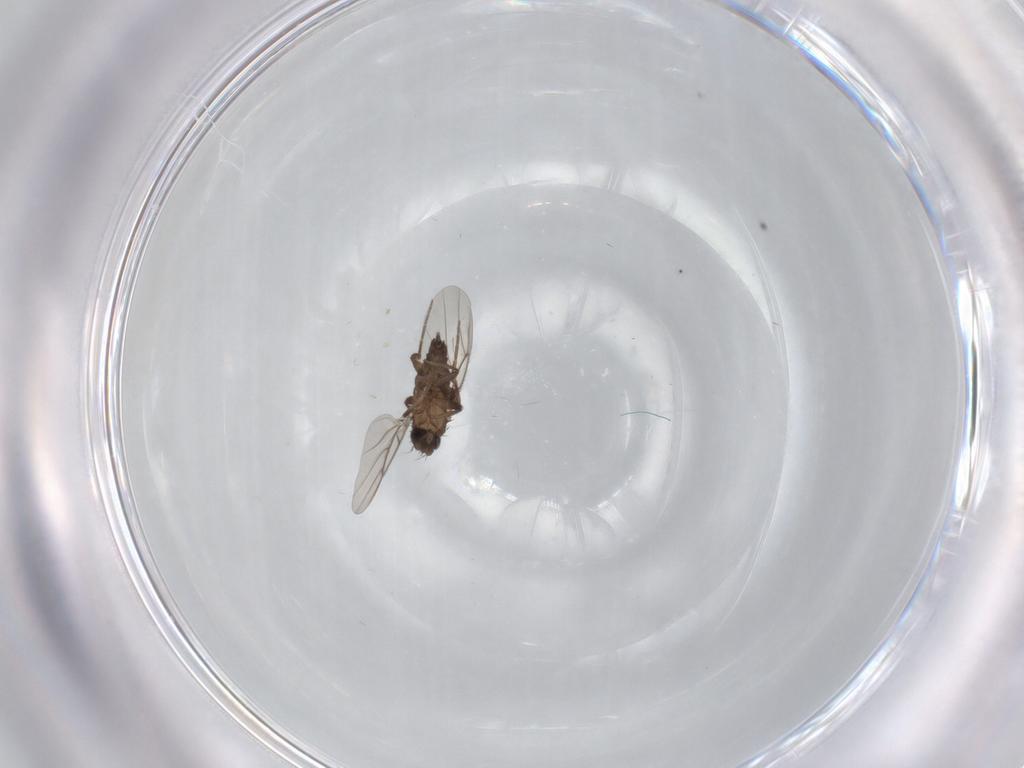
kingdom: Animalia
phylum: Arthropoda
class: Insecta
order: Diptera
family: Phoridae
